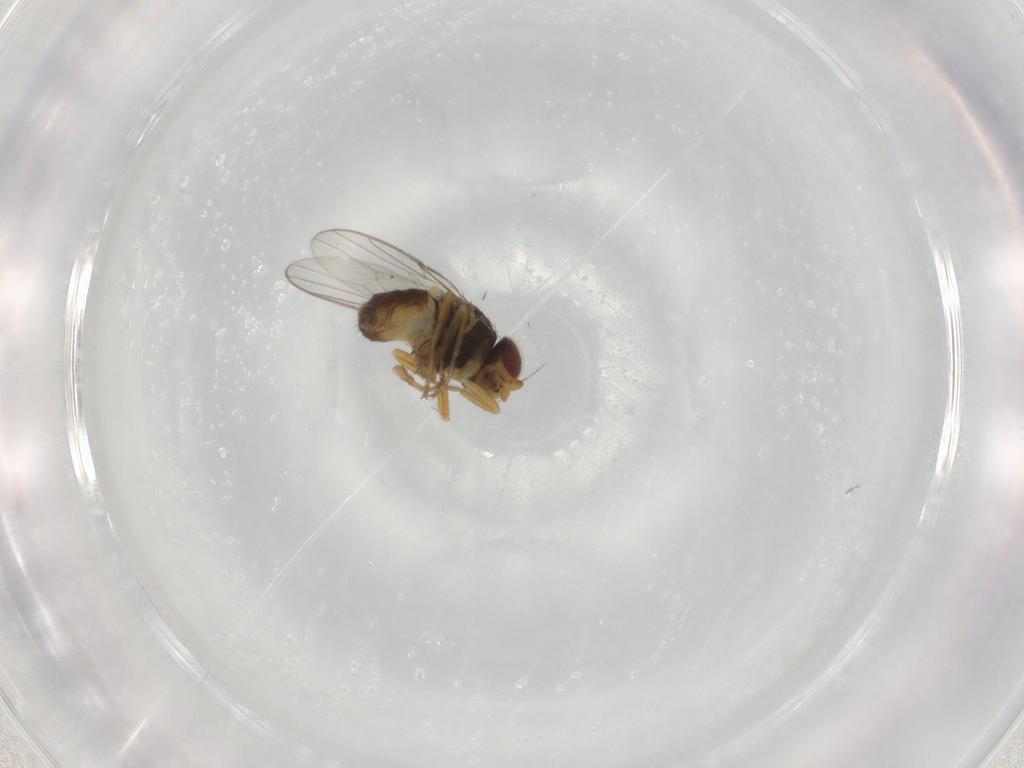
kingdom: Animalia
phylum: Arthropoda
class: Insecta
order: Diptera
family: Chloropidae
